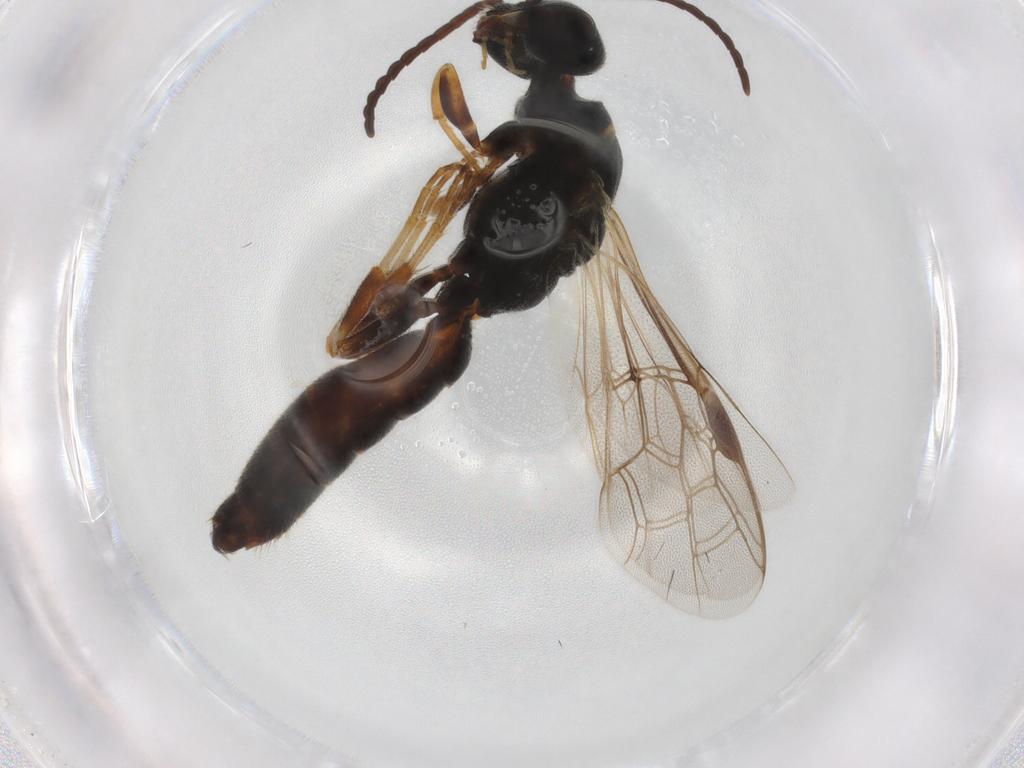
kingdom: Animalia
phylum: Arthropoda
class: Insecta
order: Hymenoptera
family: Thynnidae
